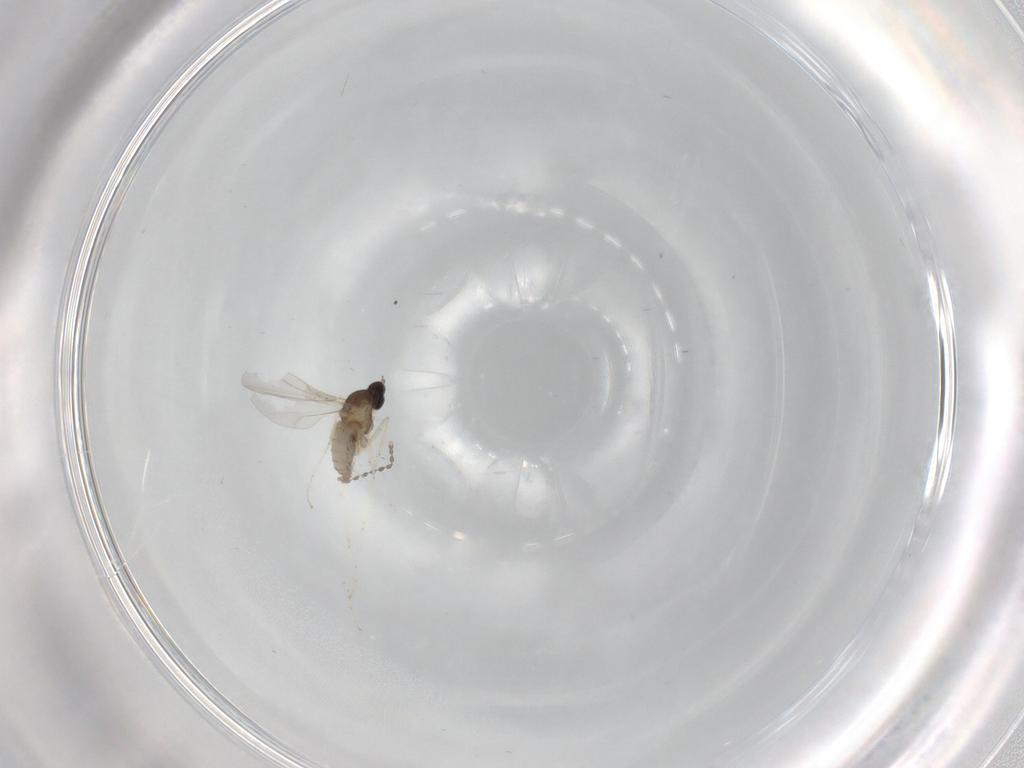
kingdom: Animalia
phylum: Arthropoda
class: Insecta
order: Diptera
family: Cecidomyiidae
